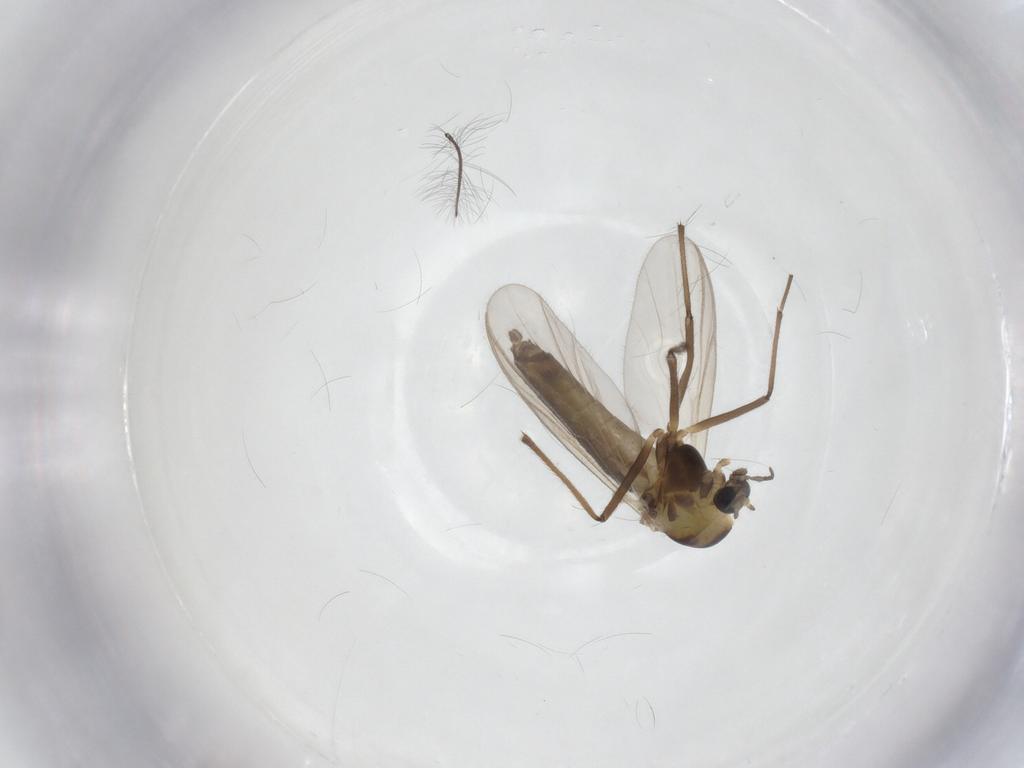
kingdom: Animalia
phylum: Arthropoda
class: Insecta
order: Diptera
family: Chironomidae
